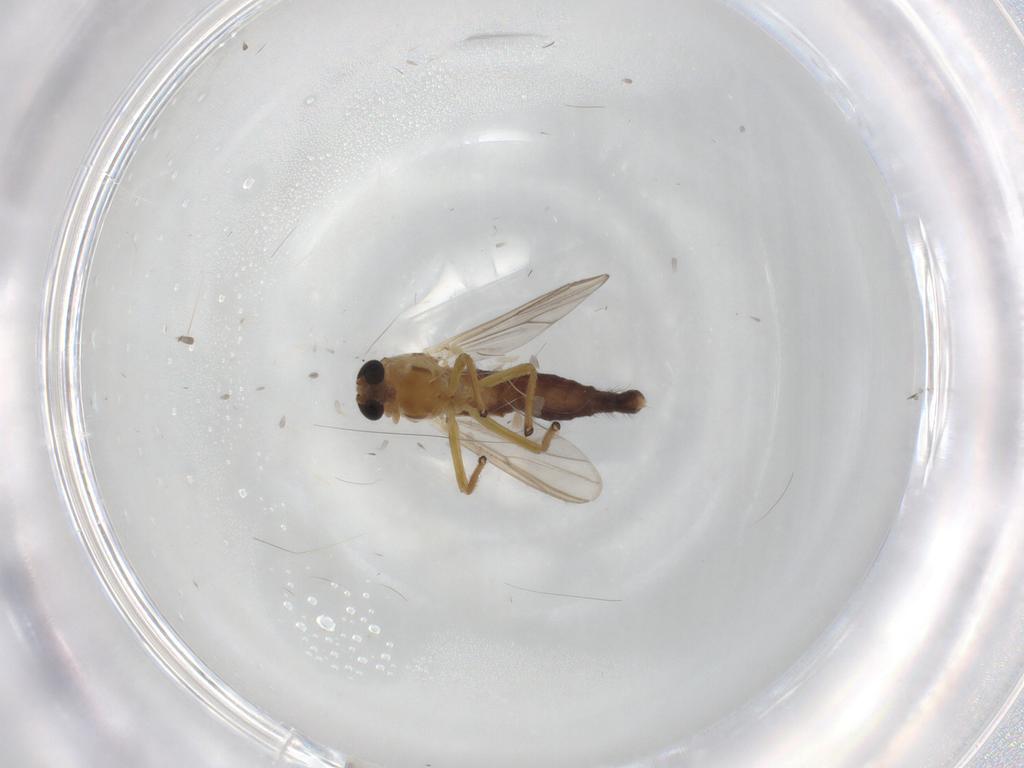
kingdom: Animalia
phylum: Arthropoda
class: Insecta
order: Diptera
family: Chironomidae
